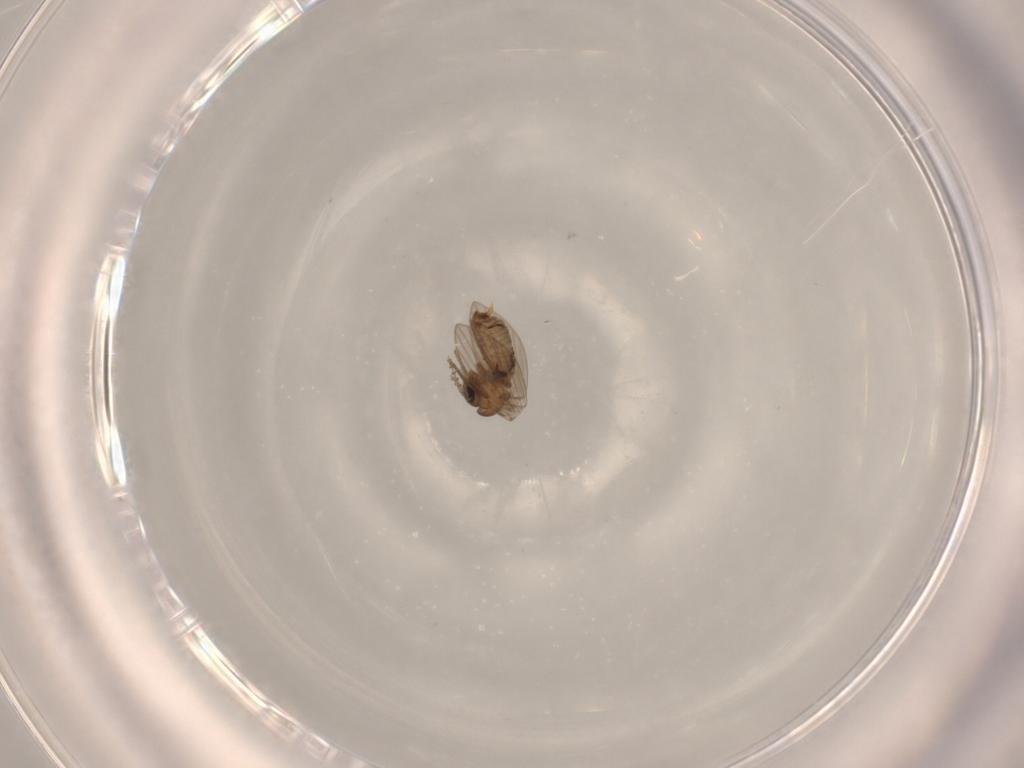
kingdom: Animalia
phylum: Arthropoda
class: Insecta
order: Diptera
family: Psychodidae
